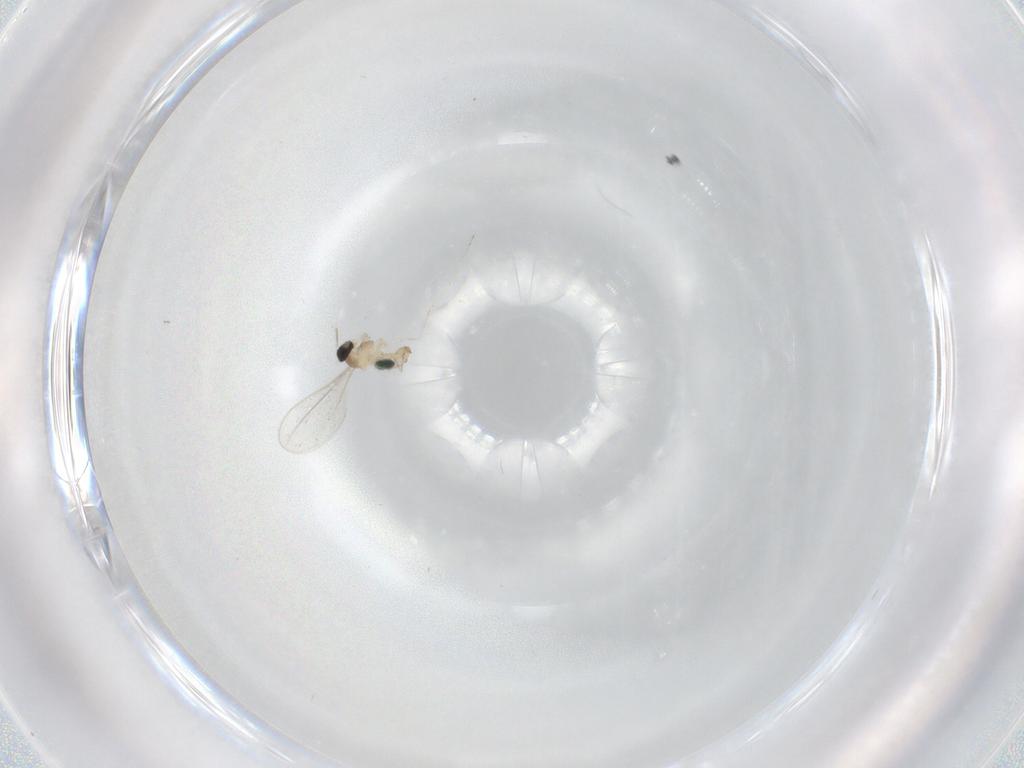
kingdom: Animalia
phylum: Arthropoda
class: Insecta
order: Diptera
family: Cecidomyiidae
